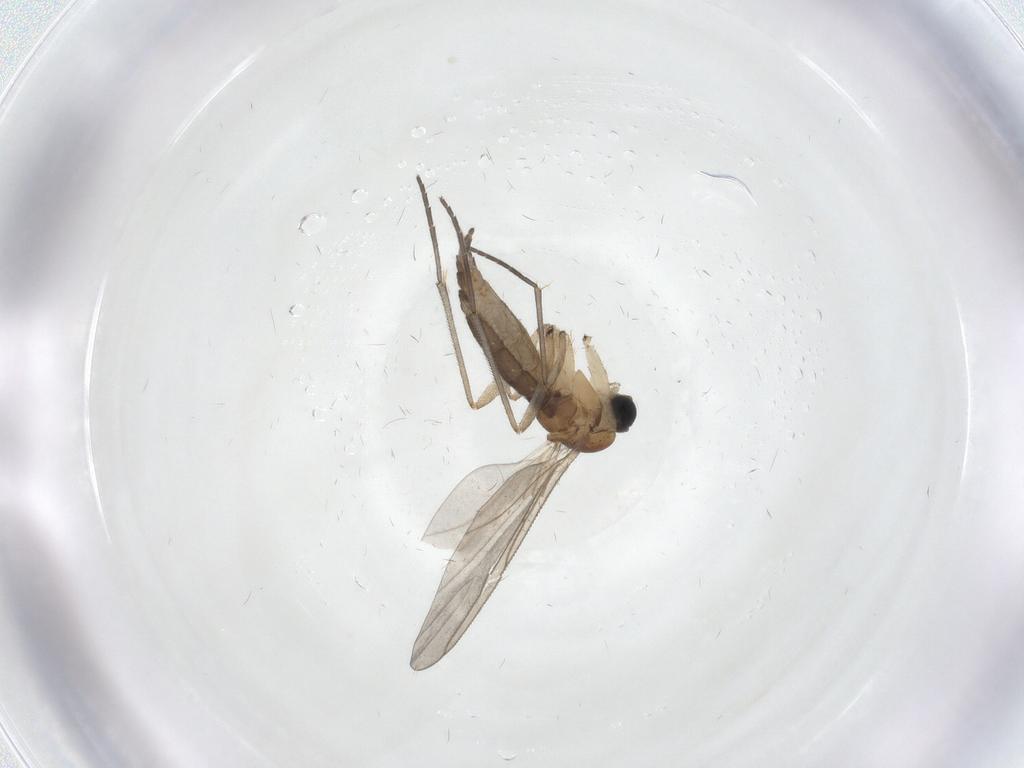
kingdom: Animalia
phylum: Arthropoda
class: Insecta
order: Diptera
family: Sciaridae
